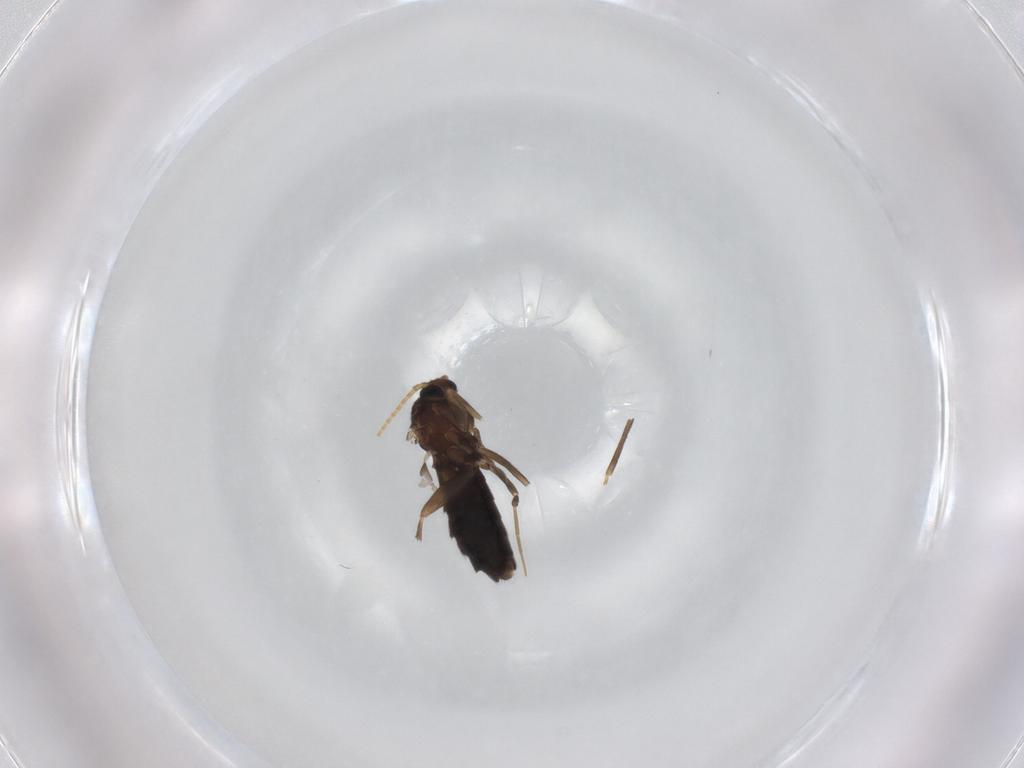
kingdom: Animalia
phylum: Arthropoda
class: Insecta
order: Diptera
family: Scatopsidae
